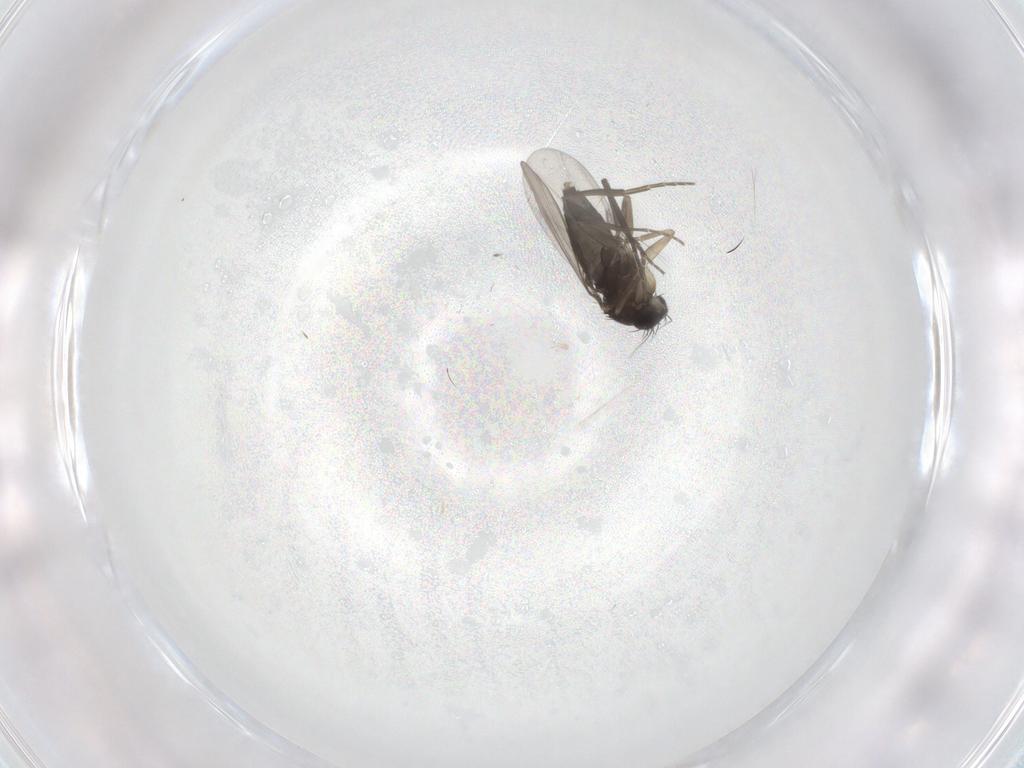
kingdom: Animalia
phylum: Arthropoda
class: Insecta
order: Diptera
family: Phoridae
